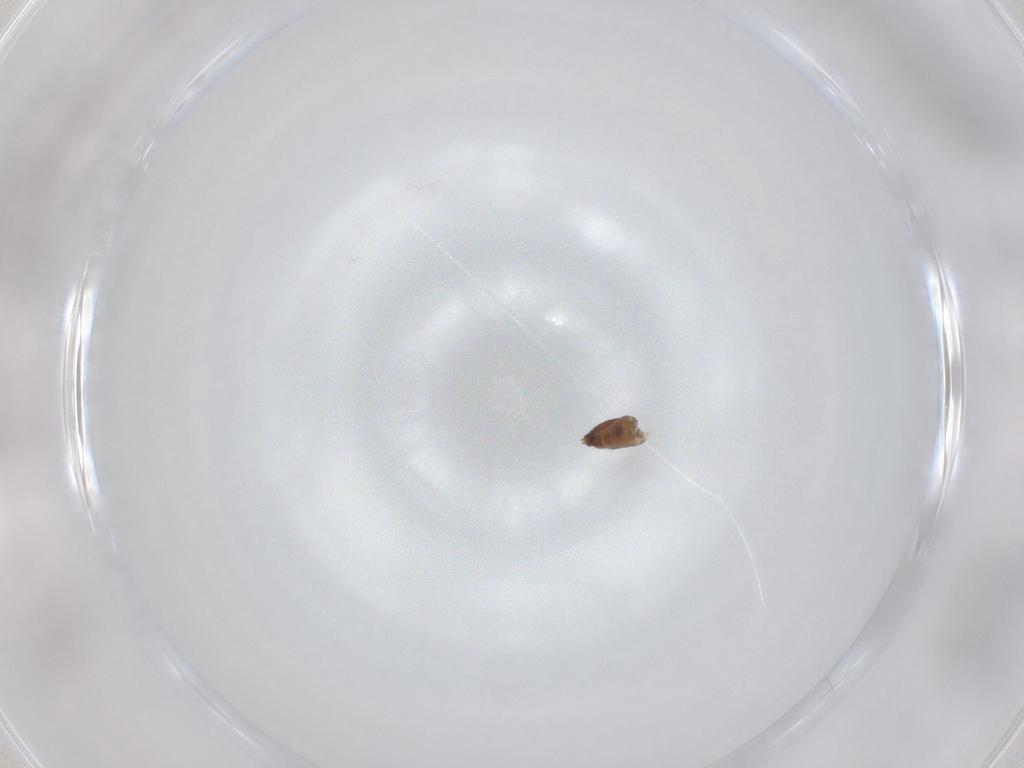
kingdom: Animalia
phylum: Arthropoda
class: Insecta
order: Diptera
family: Ceratopogonidae
